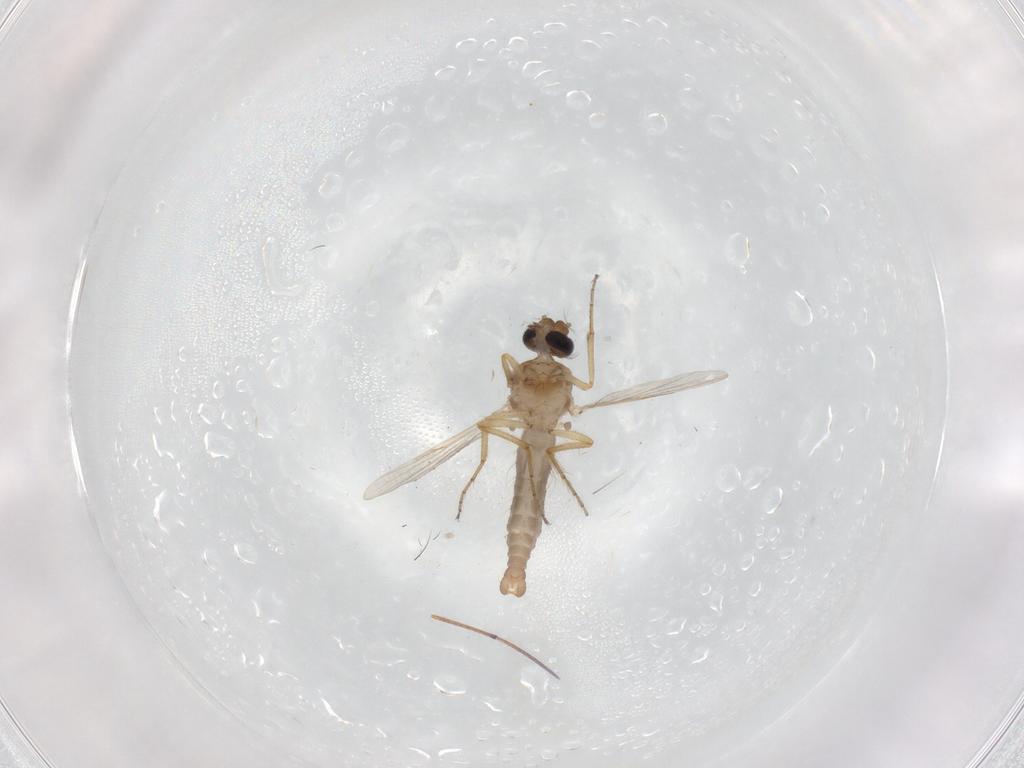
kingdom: Animalia
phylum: Arthropoda
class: Insecta
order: Diptera
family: Ceratopogonidae
